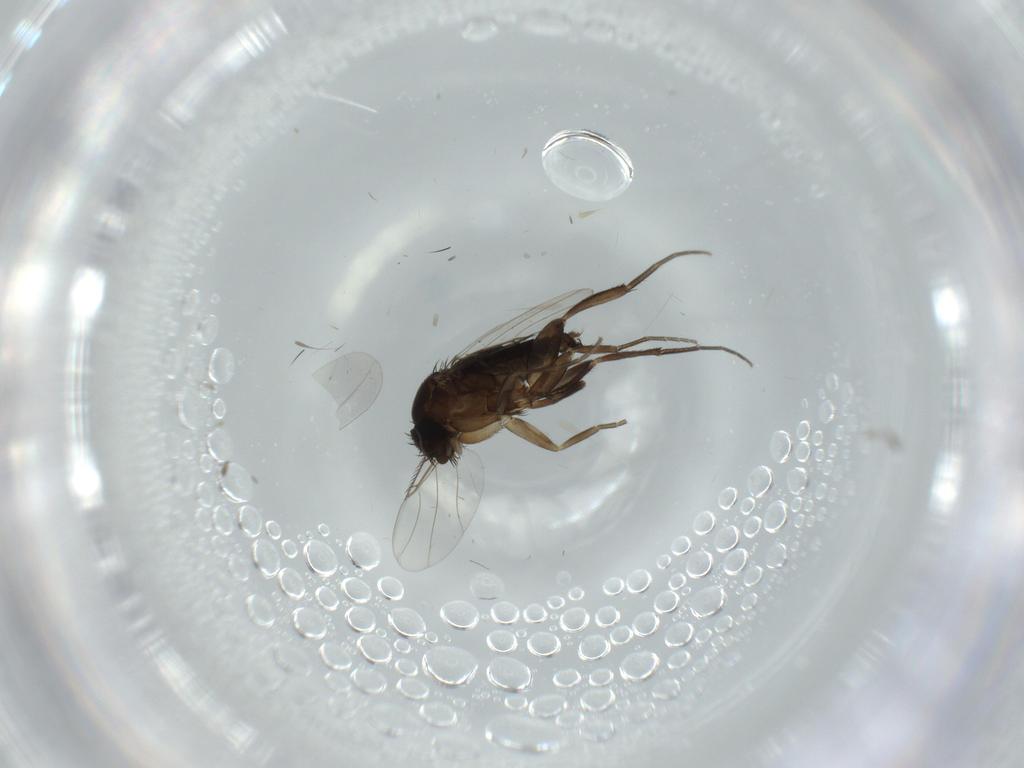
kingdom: Animalia
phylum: Arthropoda
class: Insecta
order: Diptera
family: Phoridae
